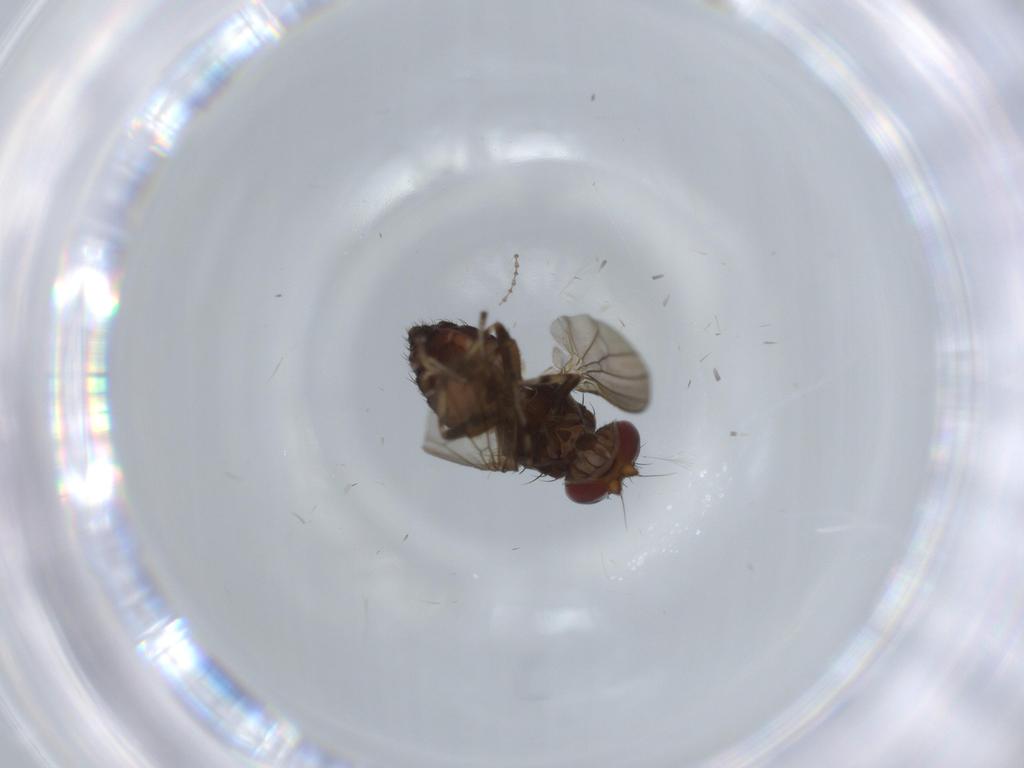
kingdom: Animalia
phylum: Arthropoda
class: Insecta
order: Diptera
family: Heleomyzidae
